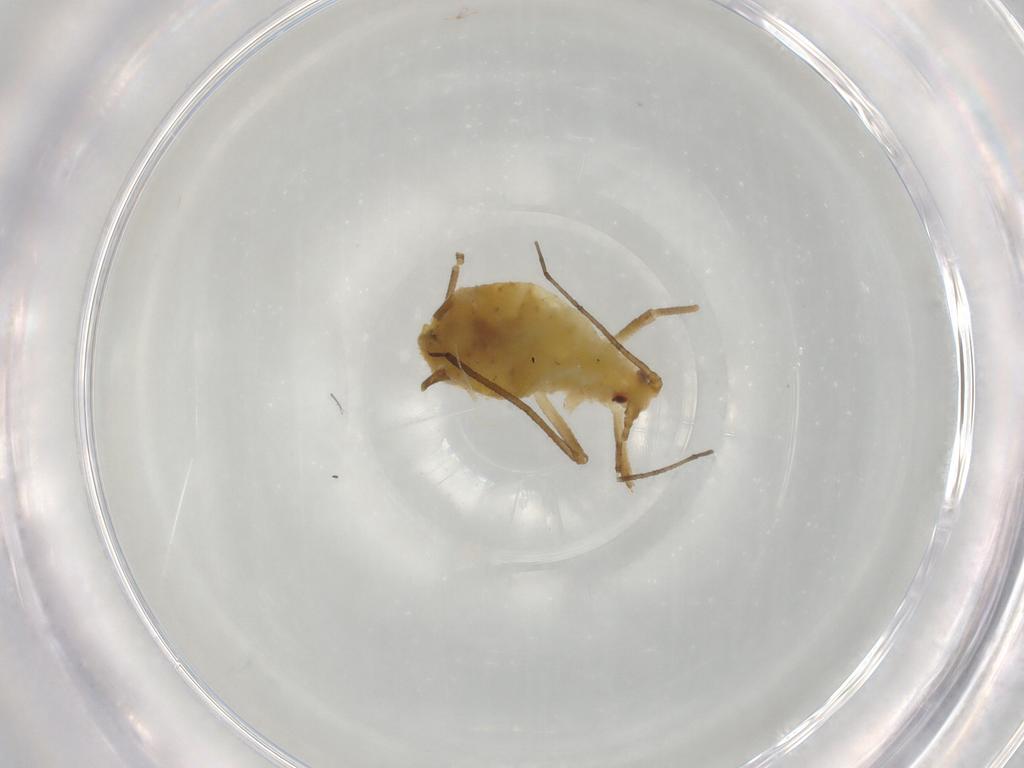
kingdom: Animalia
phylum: Arthropoda
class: Insecta
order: Hemiptera
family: Aphididae
